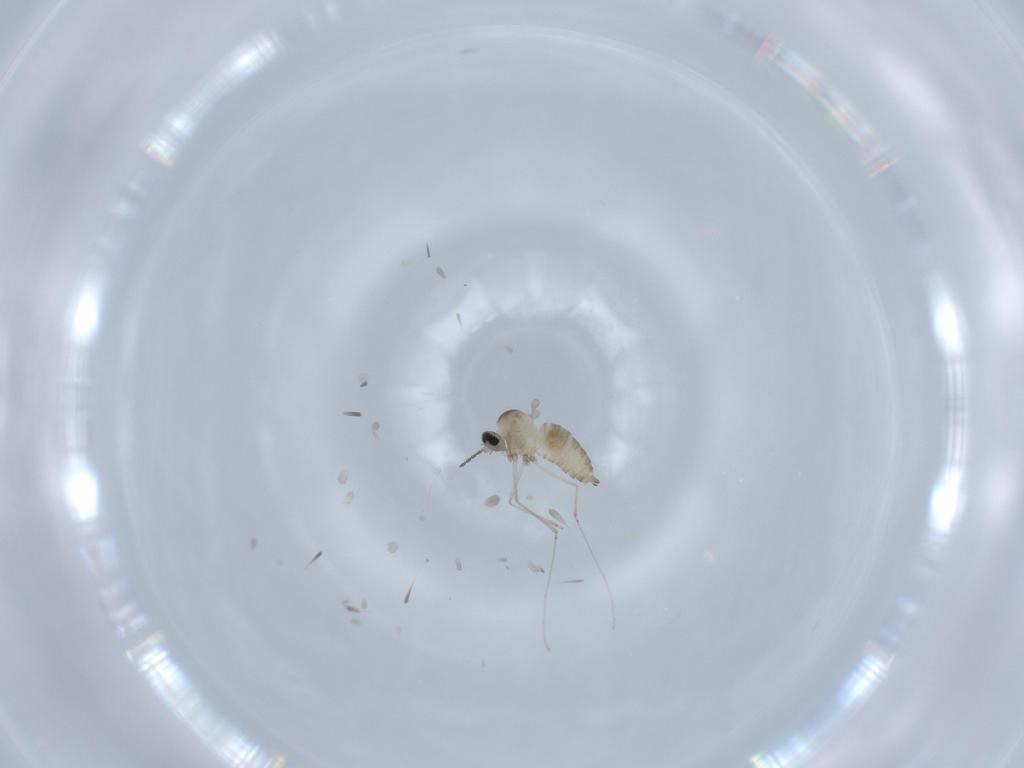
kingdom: Animalia
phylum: Arthropoda
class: Insecta
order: Diptera
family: Cecidomyiidae
